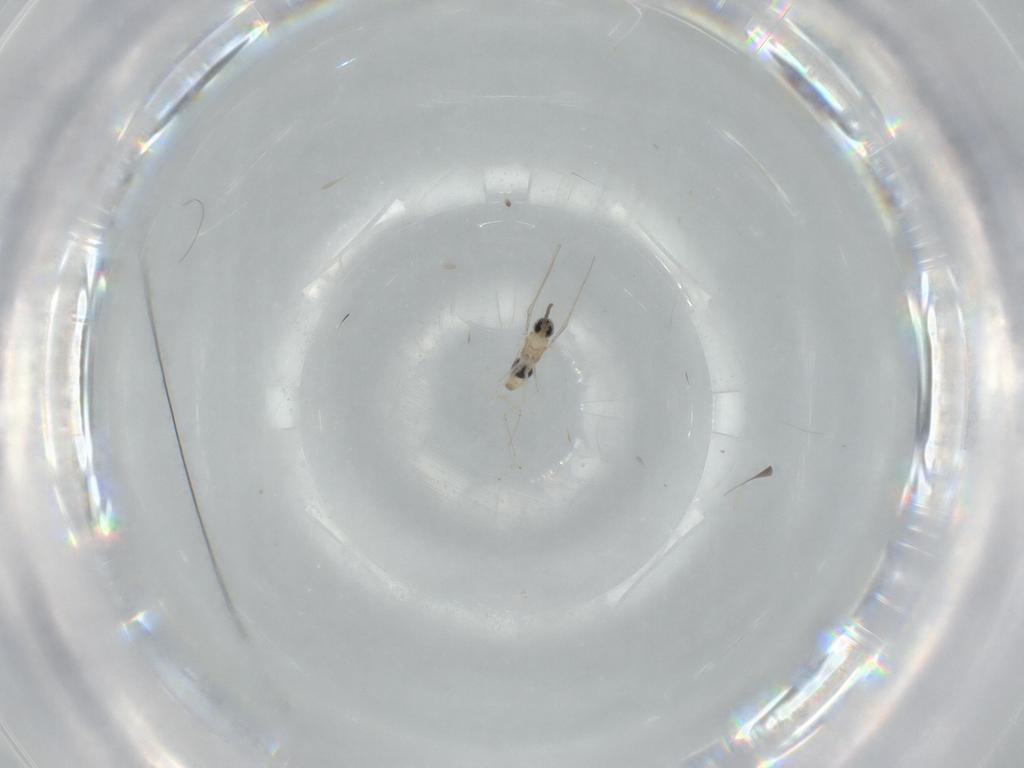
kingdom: Animalia
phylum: Arthropoda
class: Insecta
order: Diptera
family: Cecidomyiidae
